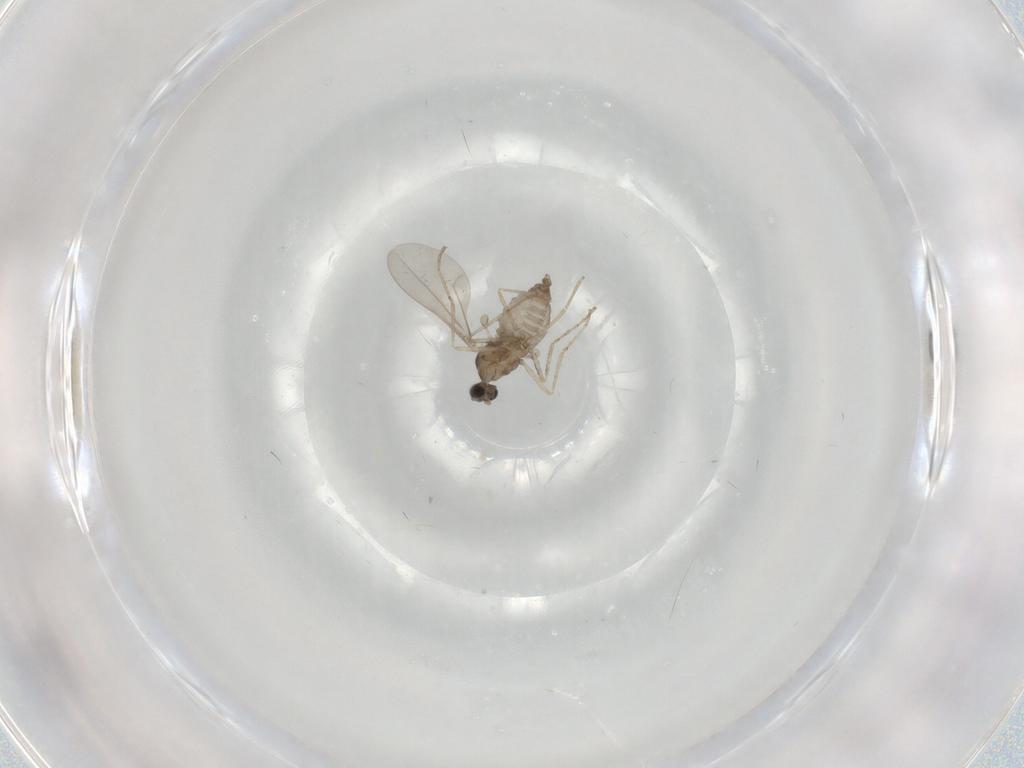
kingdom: Animalia
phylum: Arthropoda
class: Insecta
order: Diptera
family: Cecidomyiidae
